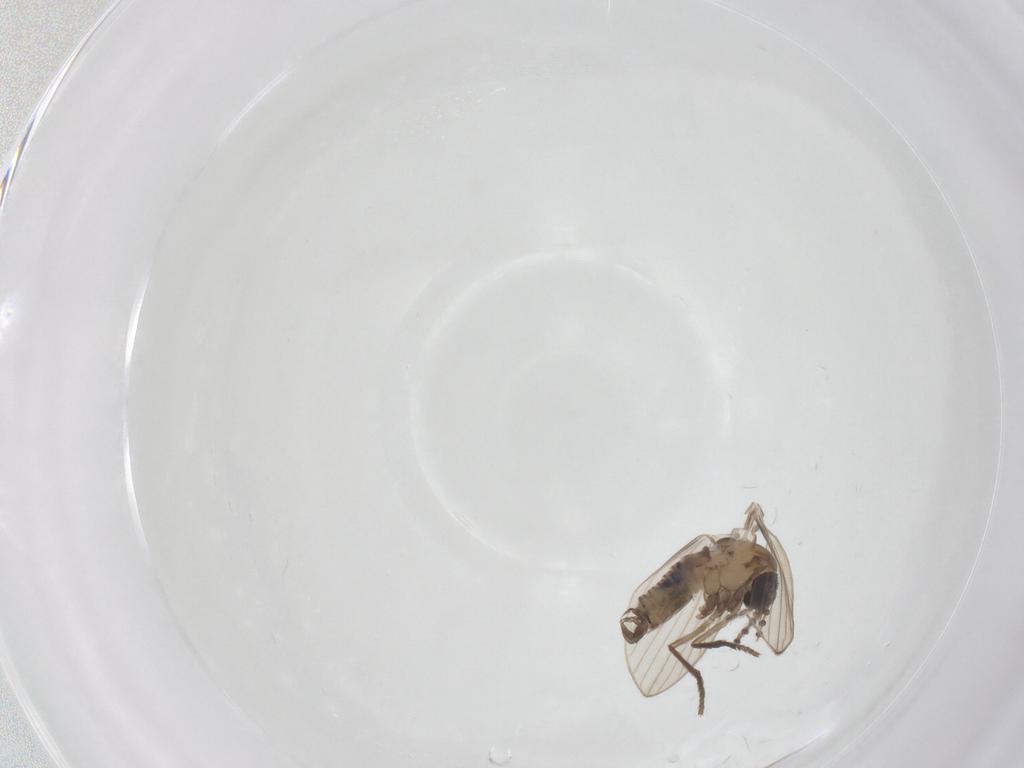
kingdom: Animalia
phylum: Arthropoda
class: Insecta
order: Diptera
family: Psychodidae
